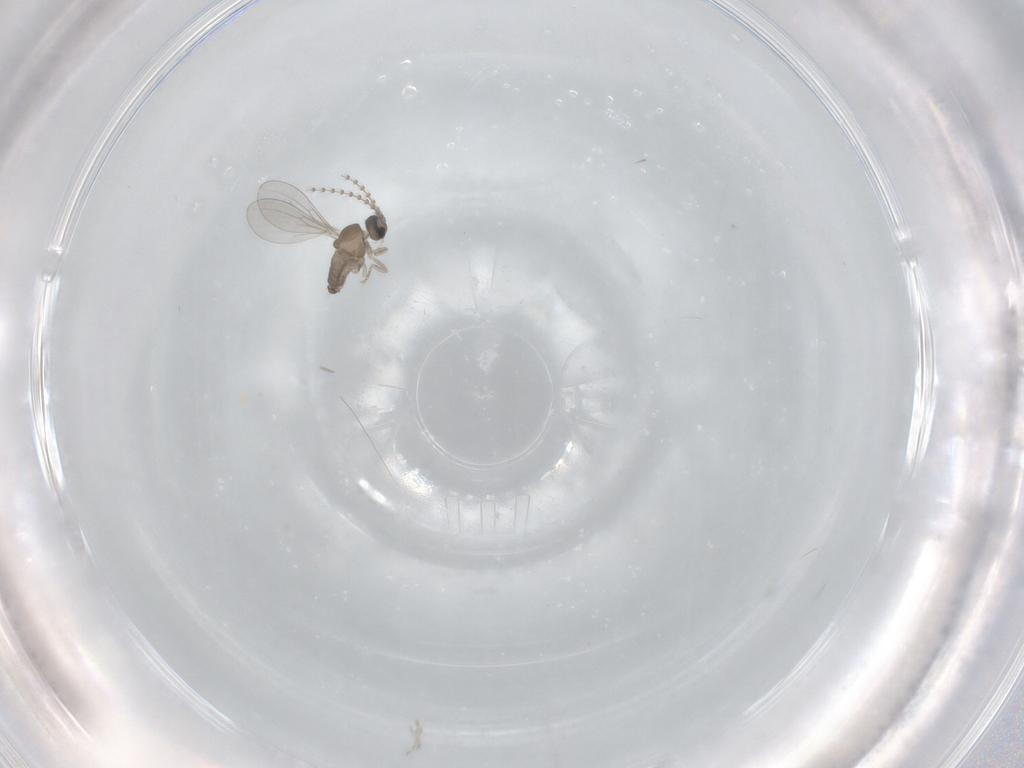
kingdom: Animalia
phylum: Arthropoda
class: Insecta
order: Diptera
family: Cecidomyiidae
